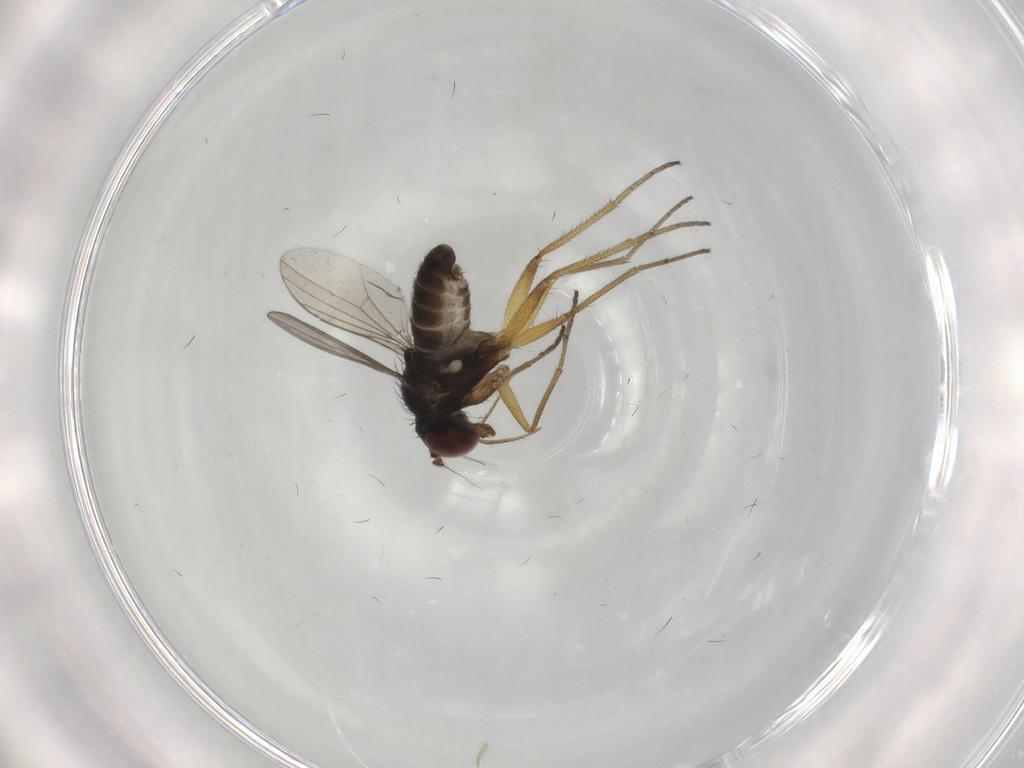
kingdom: Animalia
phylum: Arthropoda
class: Insecta
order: Diptera
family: Dolichopodidae
